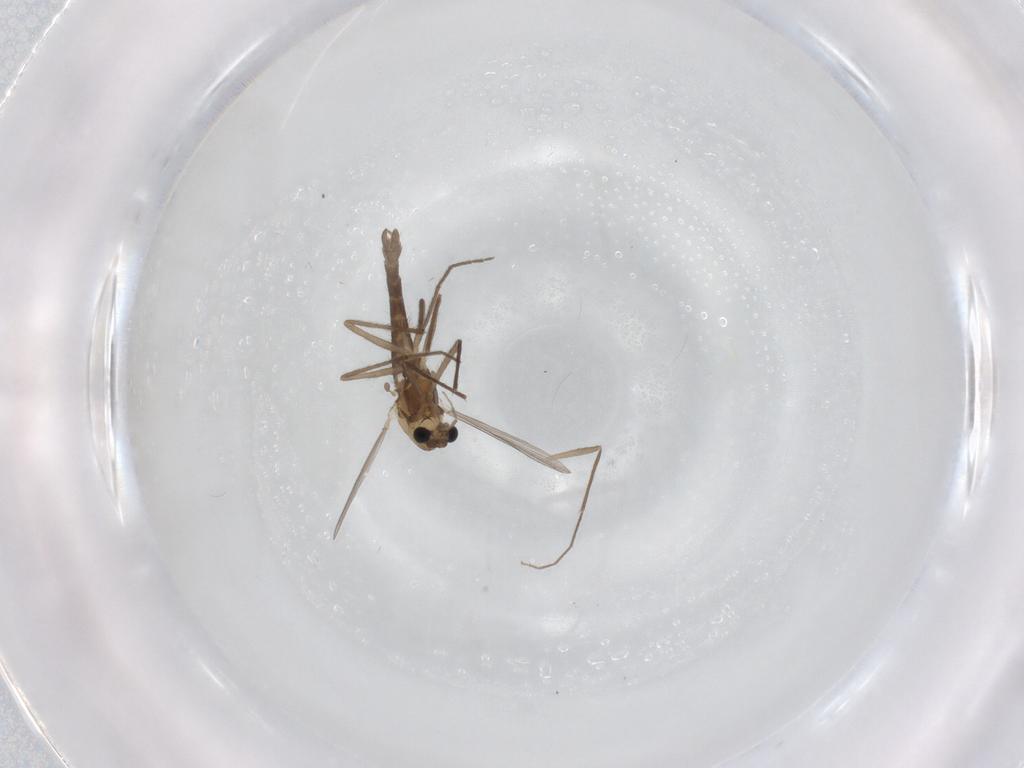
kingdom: Animalia
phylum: Arthropoda
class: Insecta
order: Diptera
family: Chironomidae
